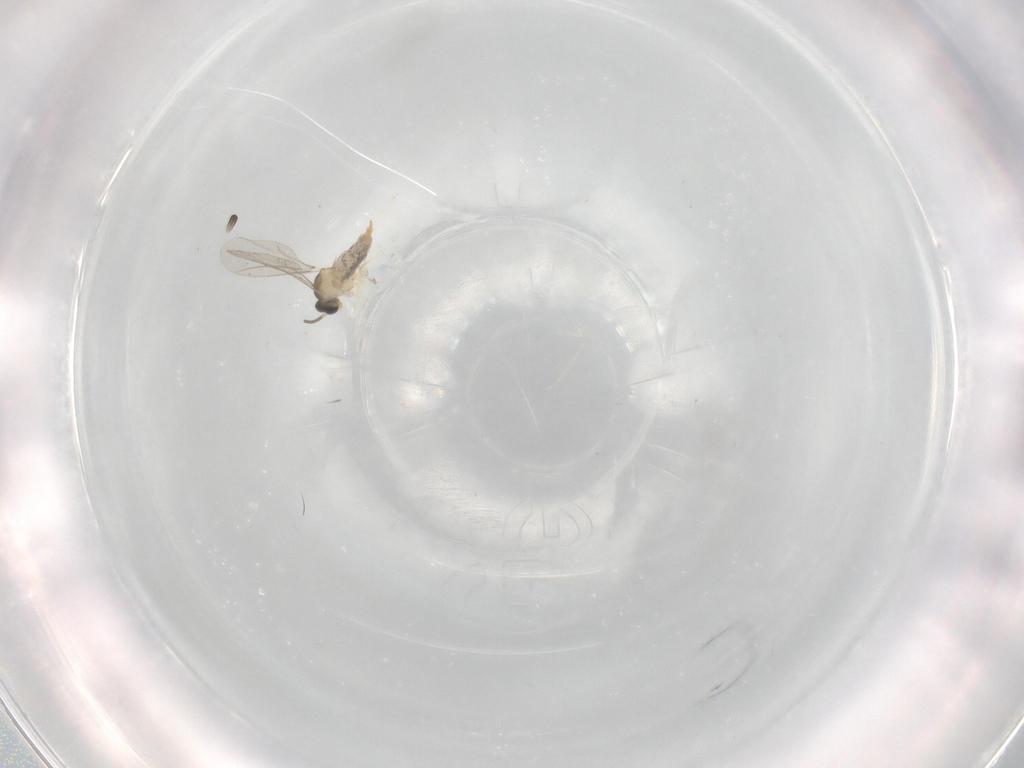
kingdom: Animalia
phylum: Arthropoda
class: Insecta
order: Diptera
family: Cecidomyiidae
